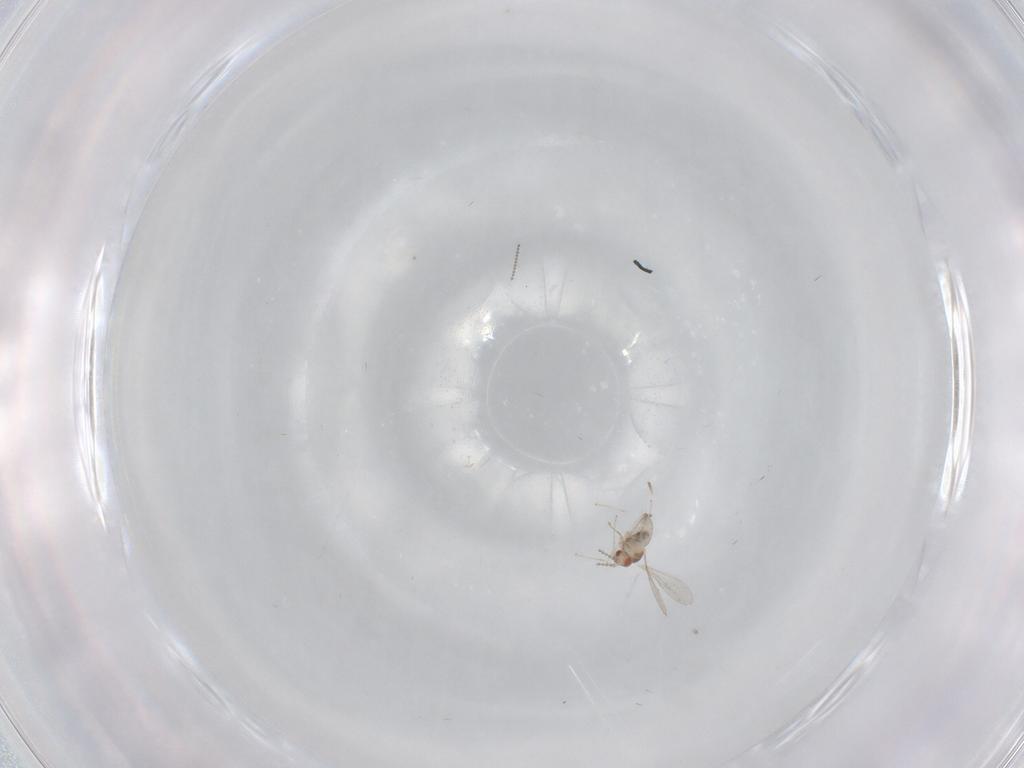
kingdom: Animalia
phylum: Arthropoda
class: Insecta
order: Diptera
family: Cecidomyiidae
